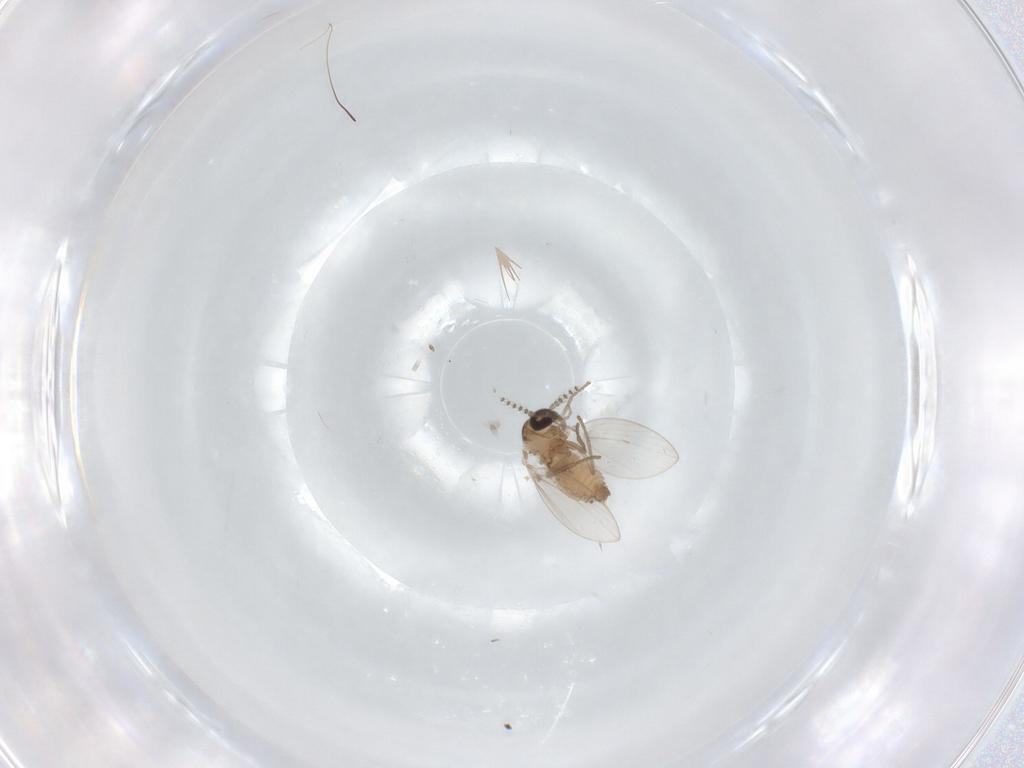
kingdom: Animalia
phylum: Arthropoda
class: Insecta
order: Diptera
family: Psychodidae
